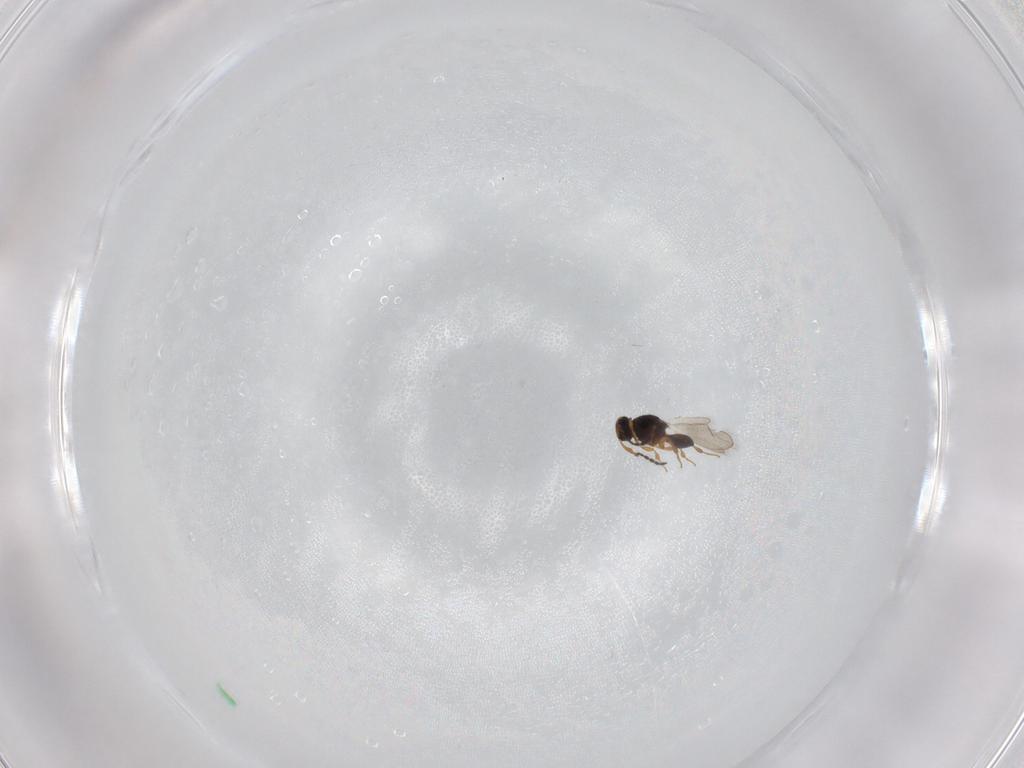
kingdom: Animalia
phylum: Arthropoda
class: Insecta
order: Hymenoptera
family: Platygastridae
